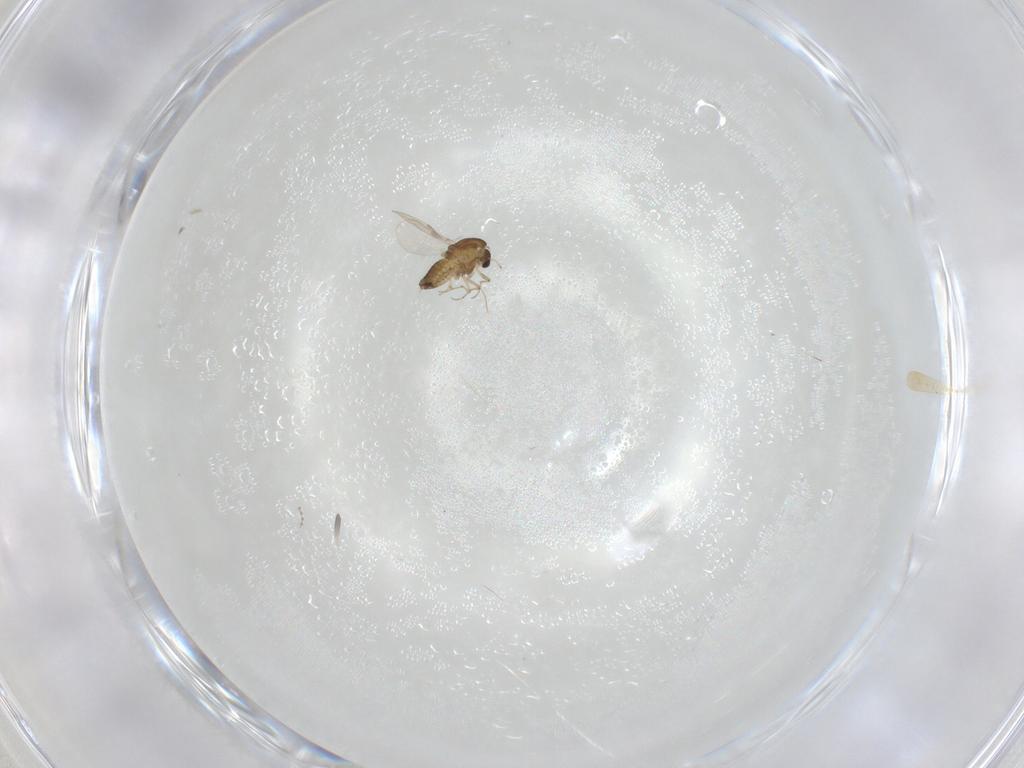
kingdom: Animalia
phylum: Arthropoda
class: Insecta
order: Diptera
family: Chironomidae
